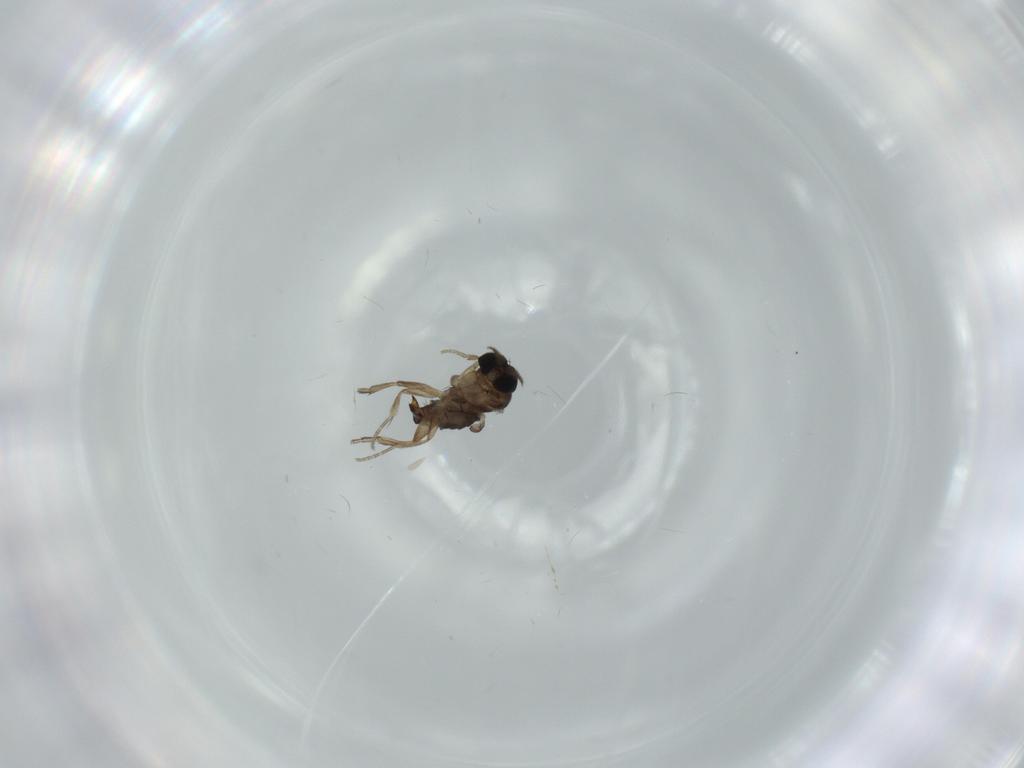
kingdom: Animalia
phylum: Arthropoda
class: Insecta
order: Diptera
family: Phoridae
